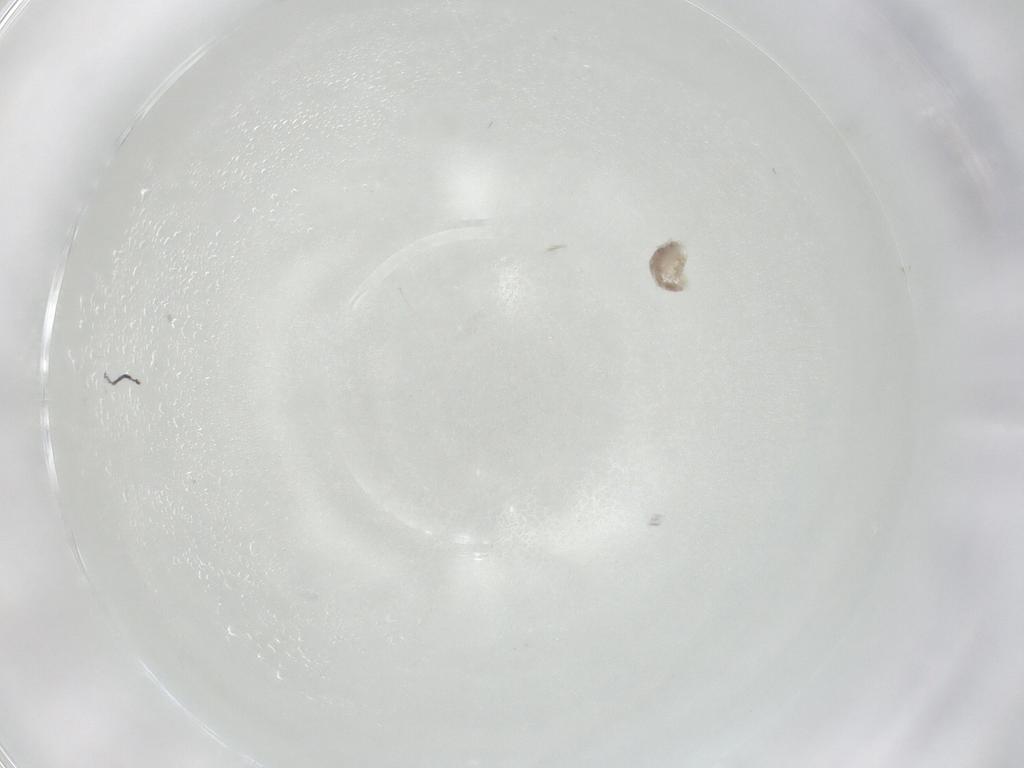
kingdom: Animalia
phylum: Arthropoda
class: Arachnida
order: Trombidiformes
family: Eupodidae
